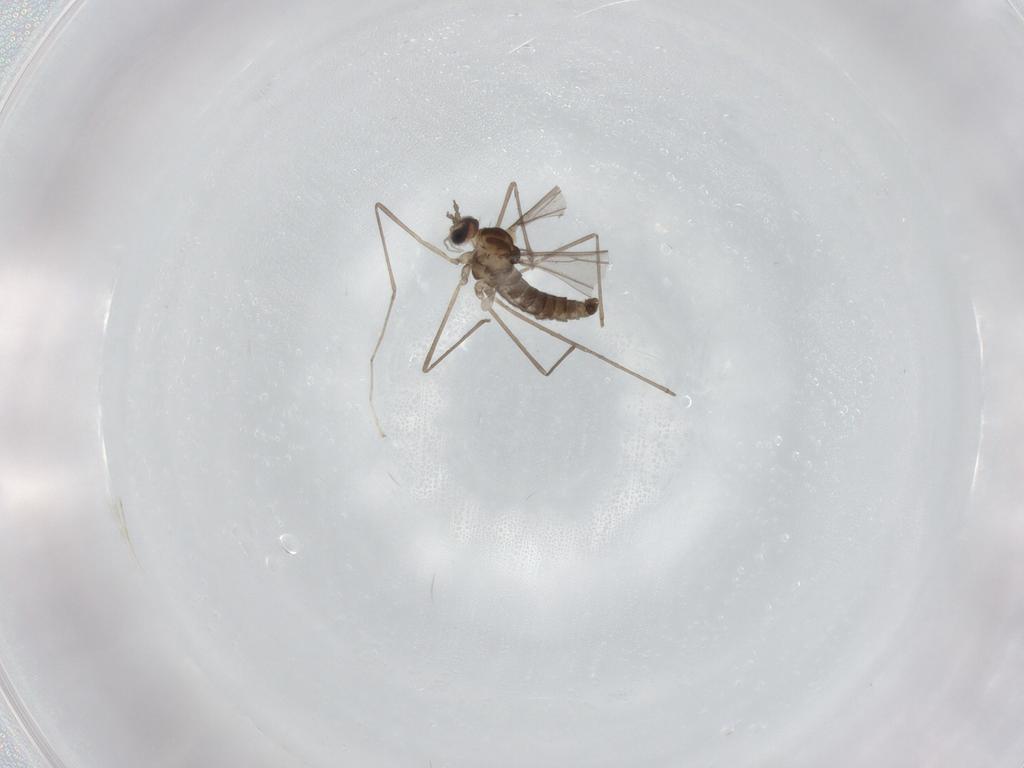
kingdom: Animalia
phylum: Arthropoda
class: Insecta
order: Diptera
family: Cecidomyiidae
